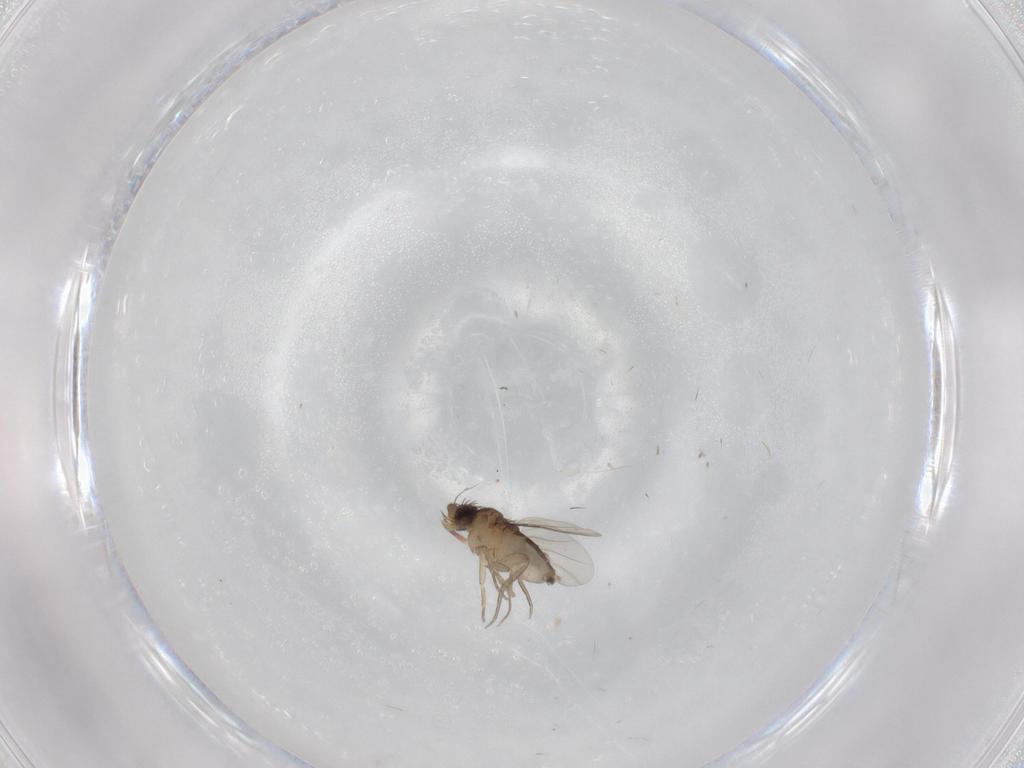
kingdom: Animalia
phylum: Arthropoda
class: Insecta
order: Diptera
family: Phoridae
